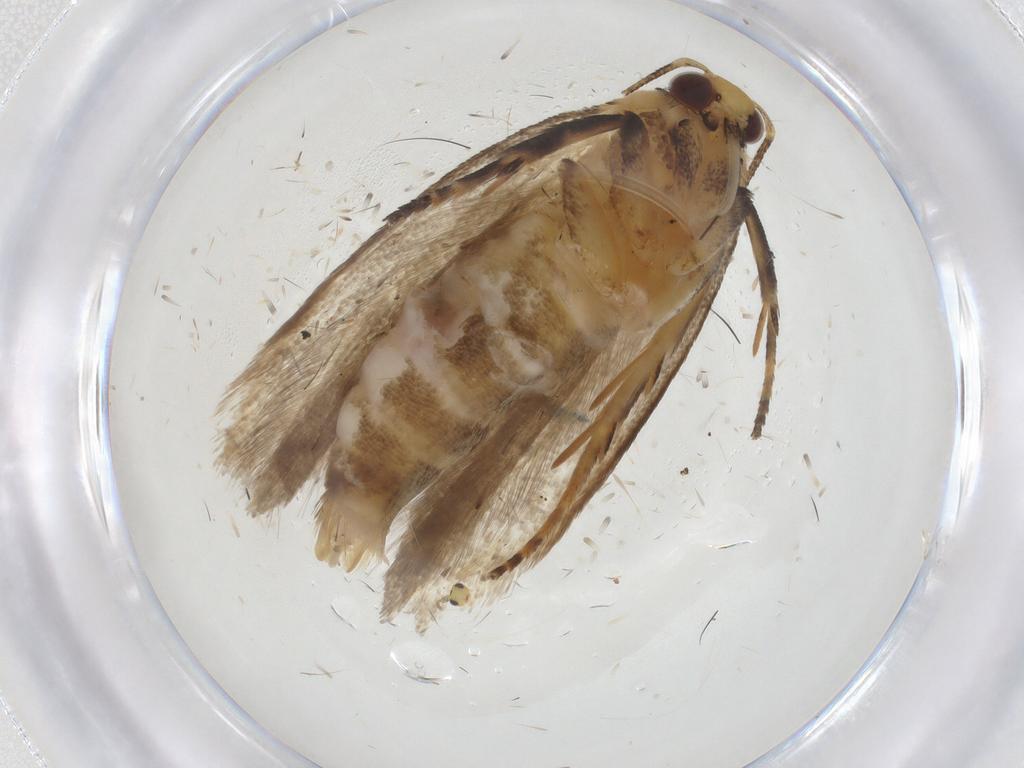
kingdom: Animalia
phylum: Arthropoda
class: Insecta
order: Lepidoptera
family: Gelechiidae
